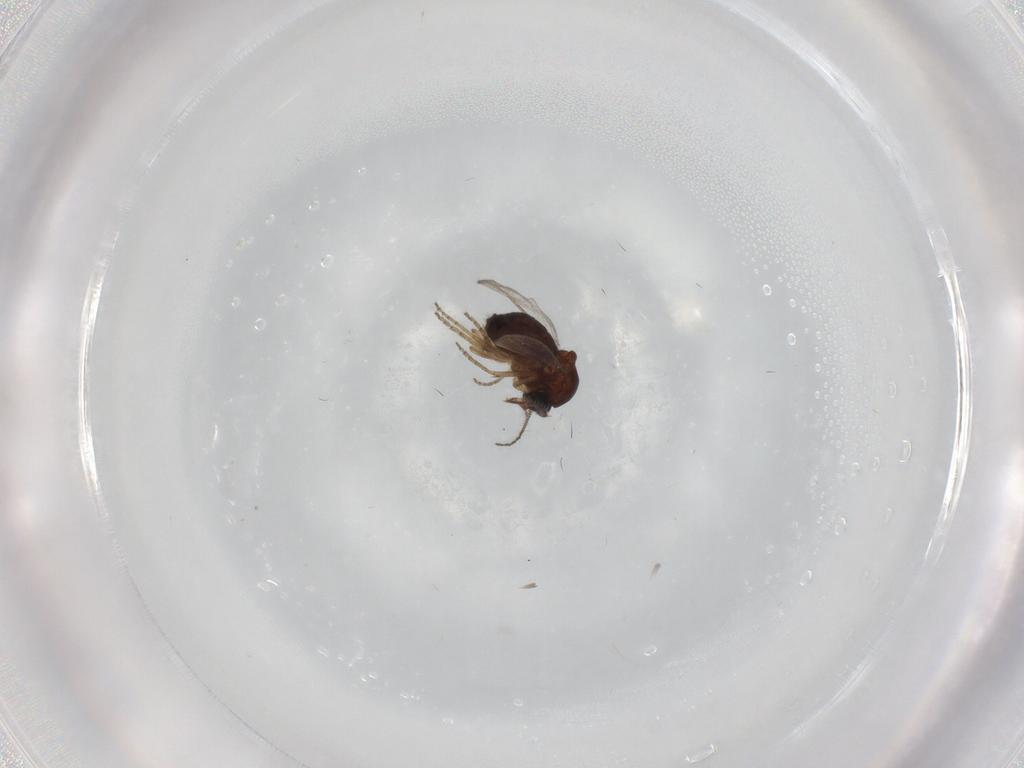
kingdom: Animalia
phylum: Arthropoda
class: Insecta
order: Diptera
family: Ceratopogonidae
